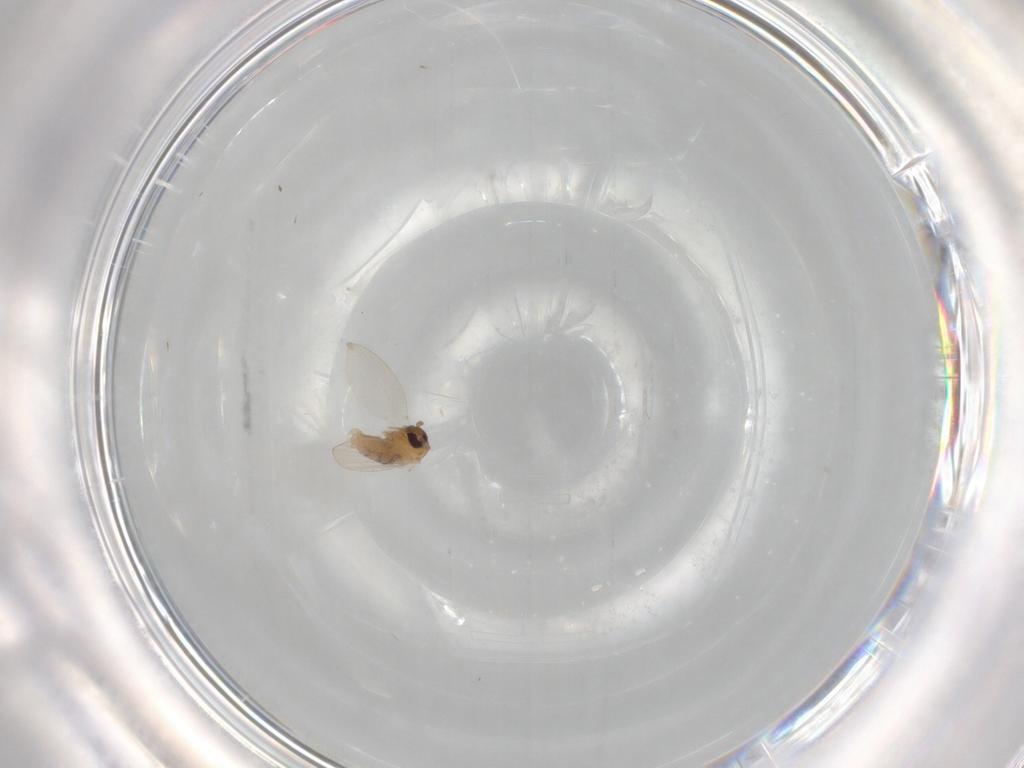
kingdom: Animalia
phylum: Arthropoda
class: Insecta
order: Diptera
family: Psychodidae
